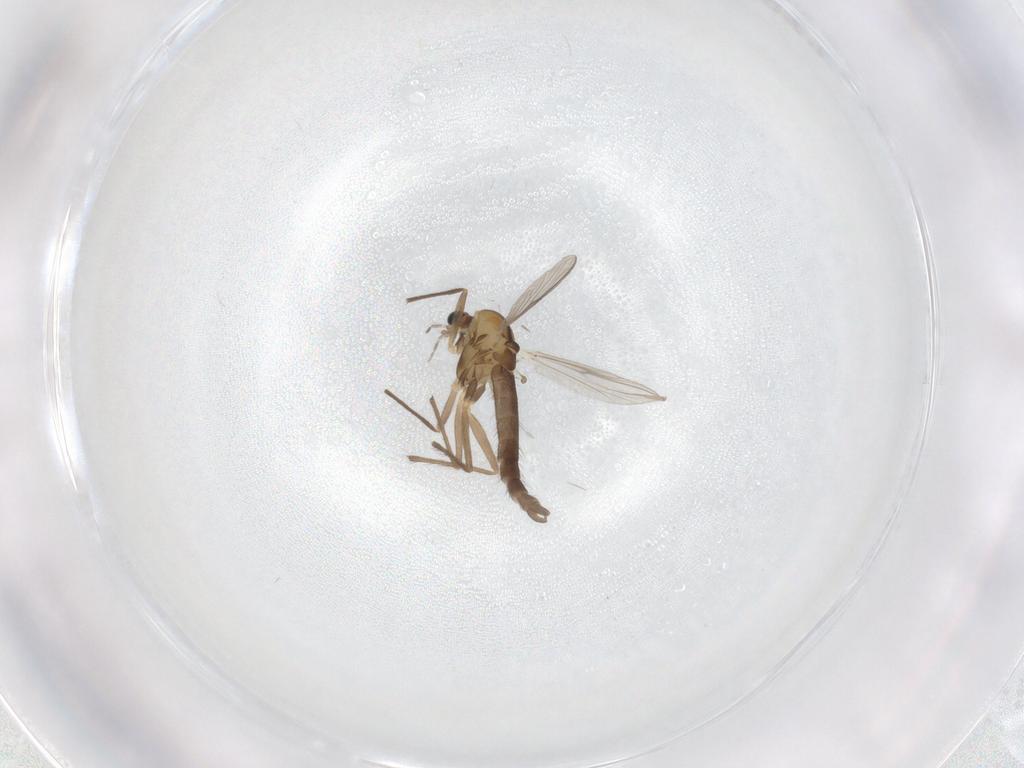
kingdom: Animalia
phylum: Arthropoda
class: Insecta
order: Diptera
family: Chironomidae
